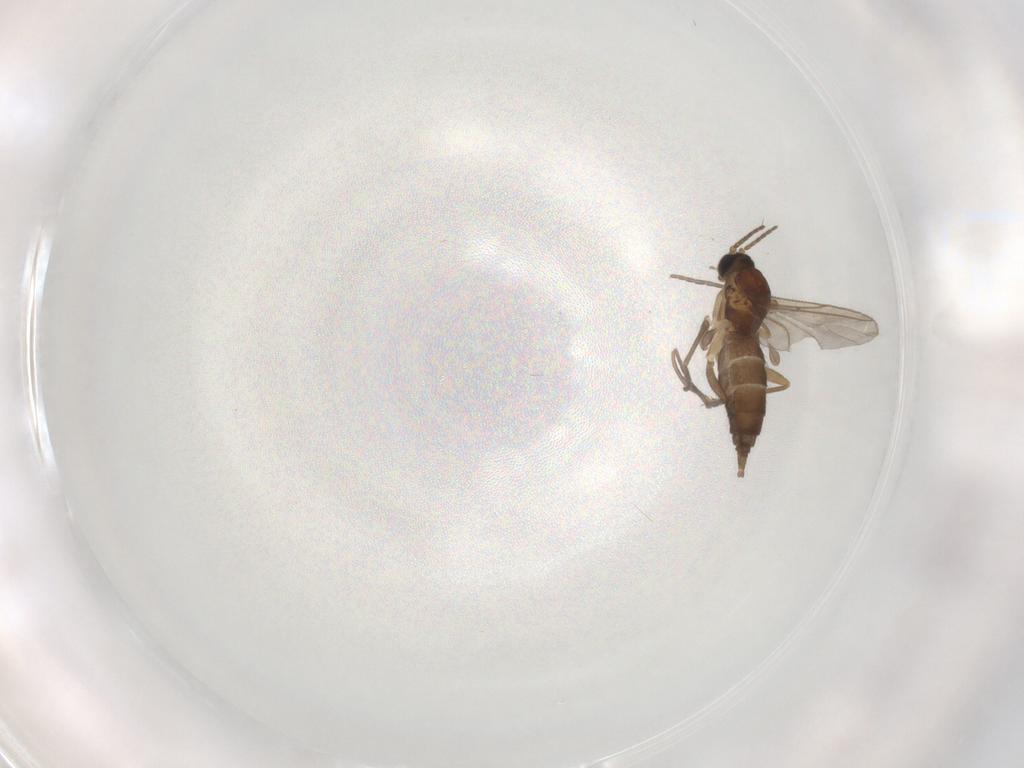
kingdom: Animalia
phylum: Arthropoda
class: Insecta
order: Diptera
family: Sciaridae
